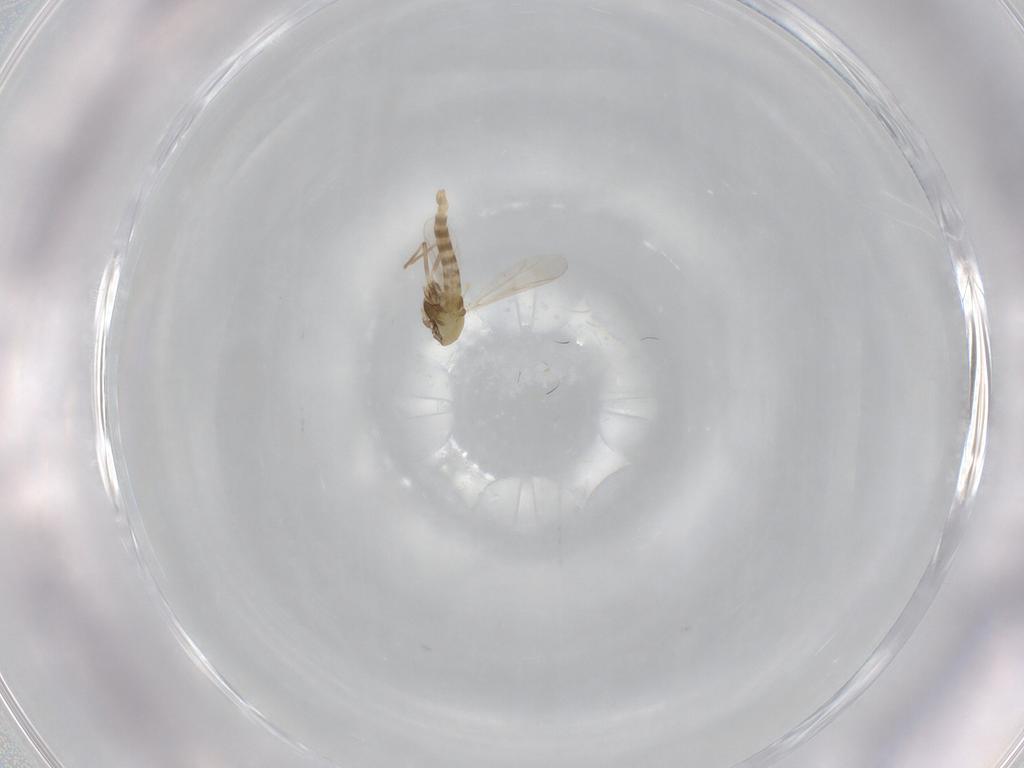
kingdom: Animalia
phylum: Arthropoda
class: Insecta
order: Diptera
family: Chironomidae
